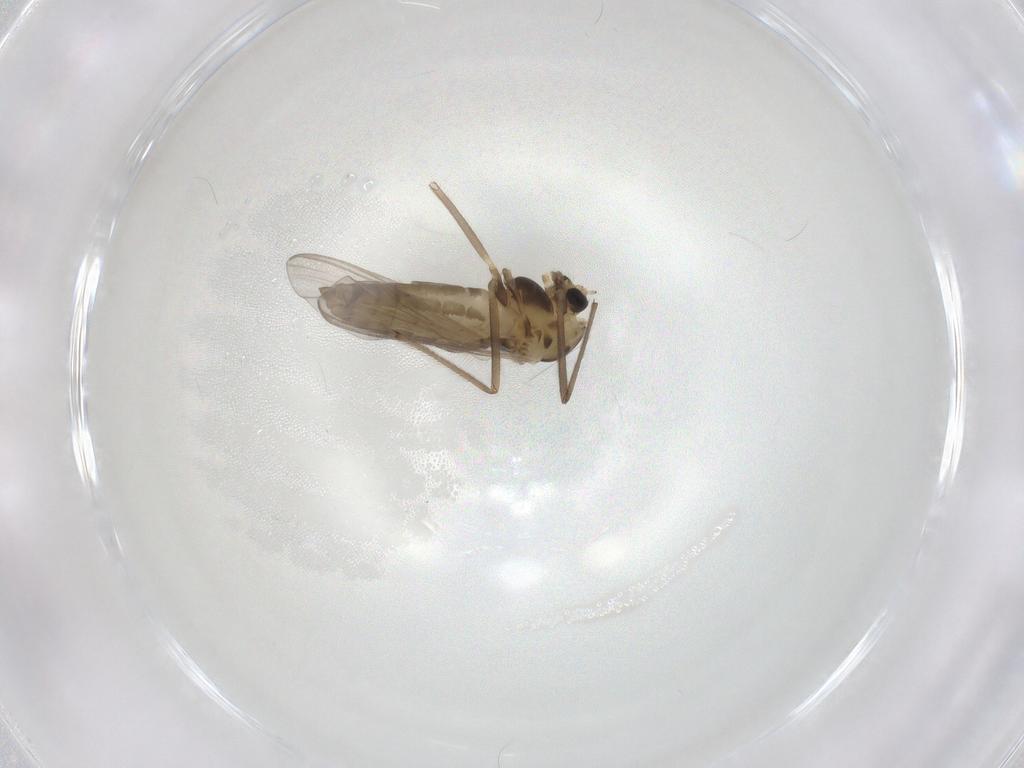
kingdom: Animalia
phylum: Arthropoda
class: Insecta
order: Diptera
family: Chironomidae
